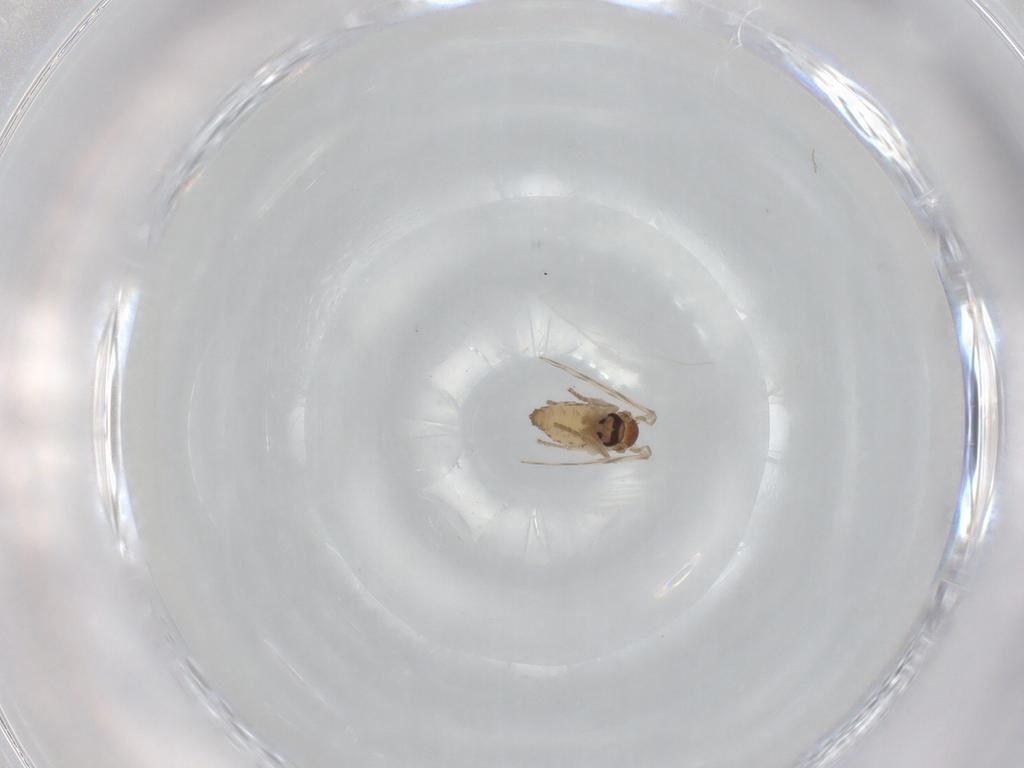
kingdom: Animalia
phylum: Arthropoda
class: Insecta
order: Diptera
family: Psychodidae
